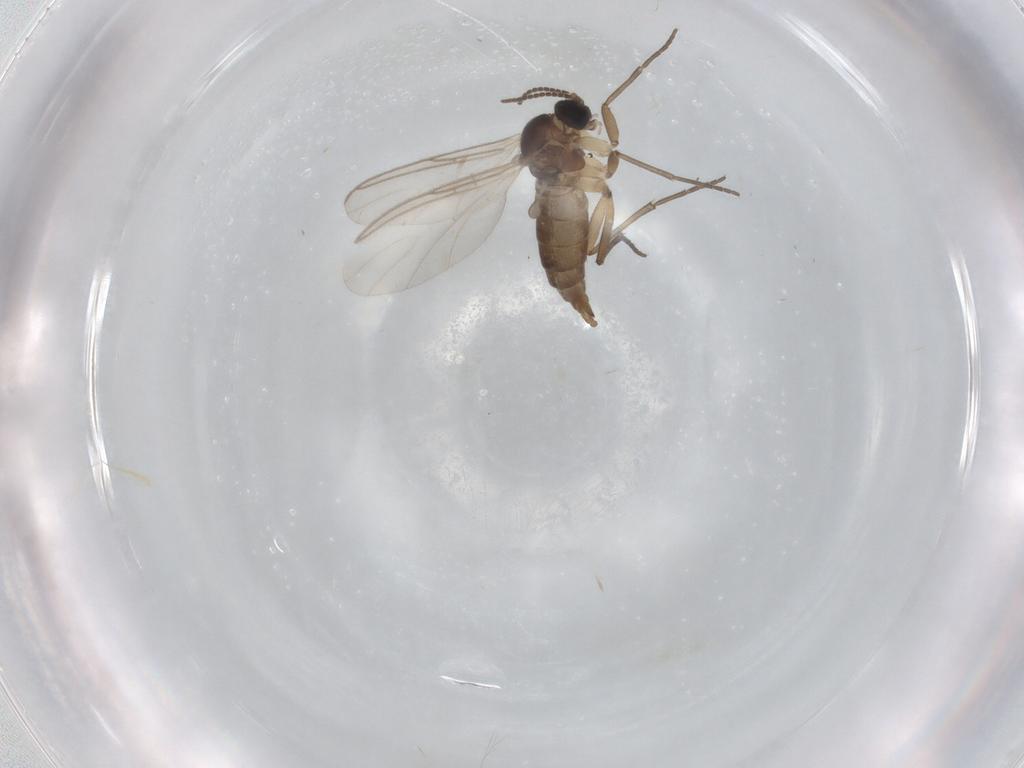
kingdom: Animalia
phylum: Arthropoda
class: Insecta
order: Diptera
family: Sciaridae
